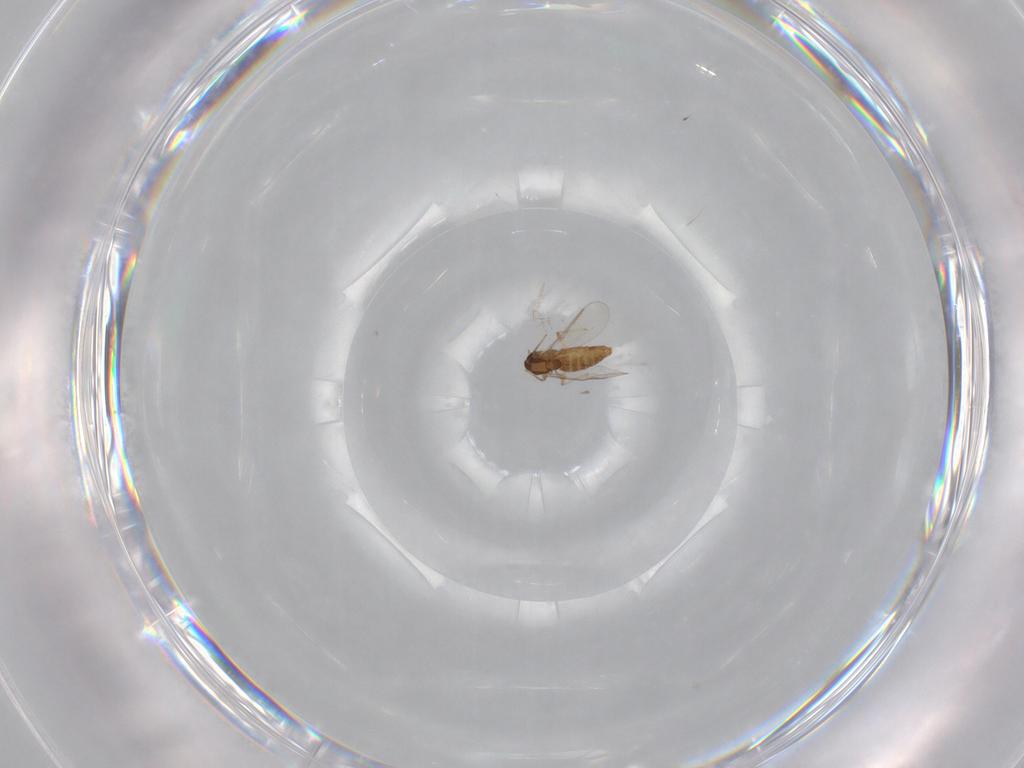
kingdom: Animalia
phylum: Arthropoda
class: Insecta
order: Diptera
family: Chironomidae
